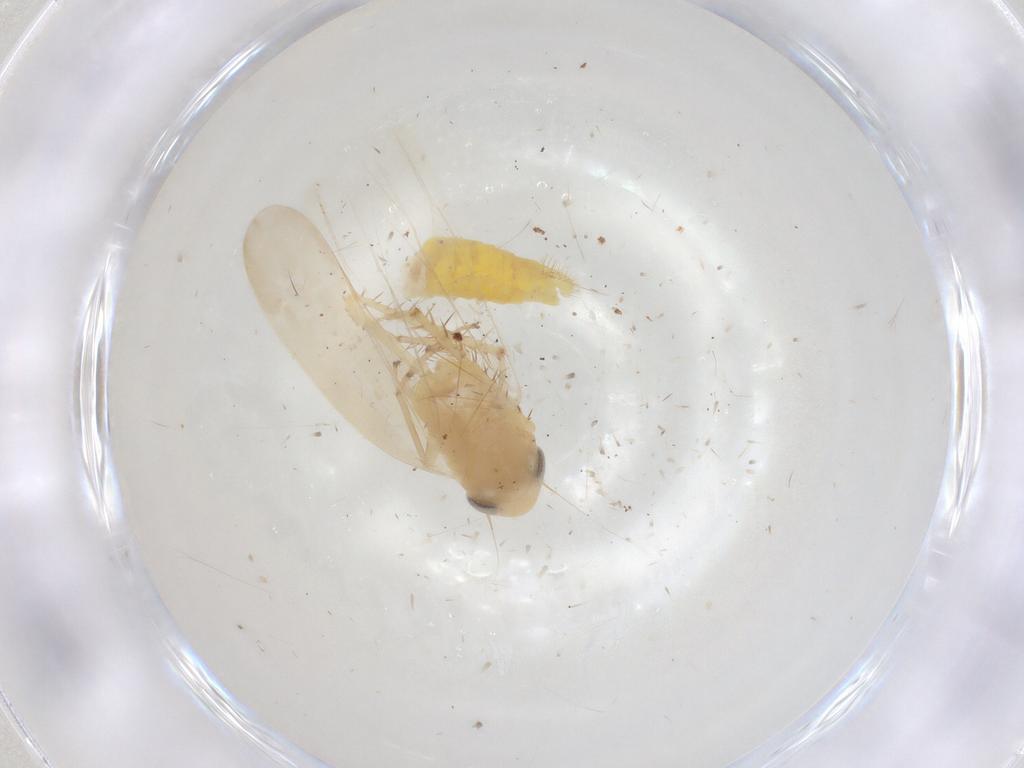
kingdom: Animalia
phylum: Arthropoda
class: Insecta
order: Hemiptera
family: Cicadellidae
